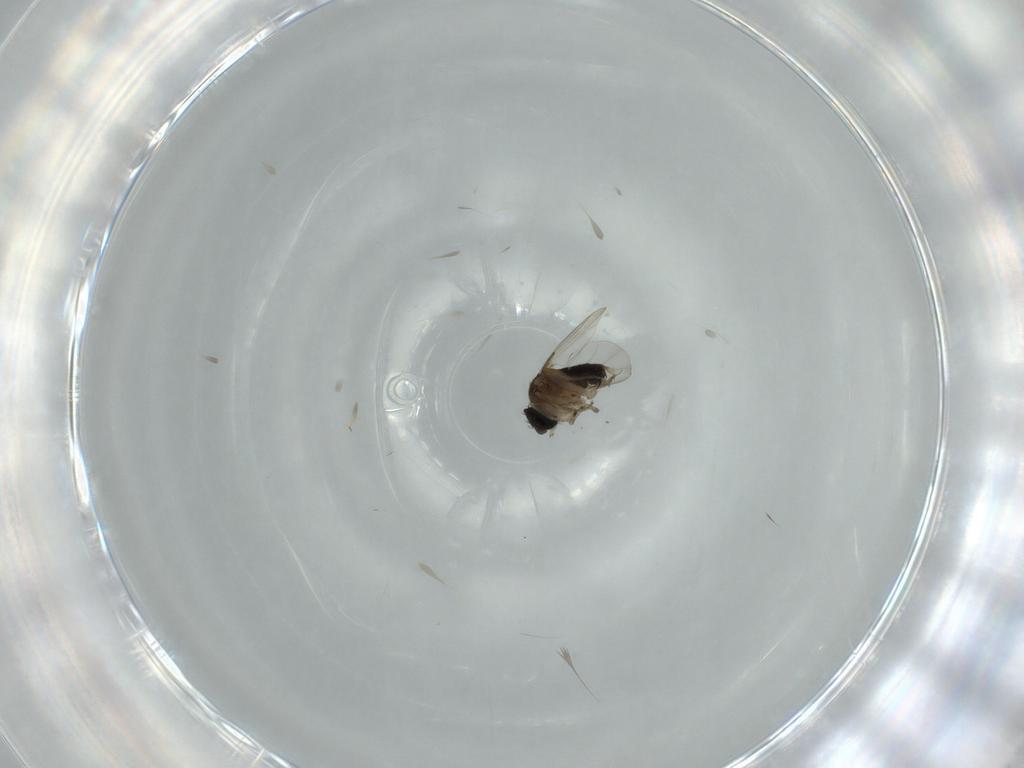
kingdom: Animalia
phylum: Arthropoda
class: Insecta
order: Diptera
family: Phoridae
